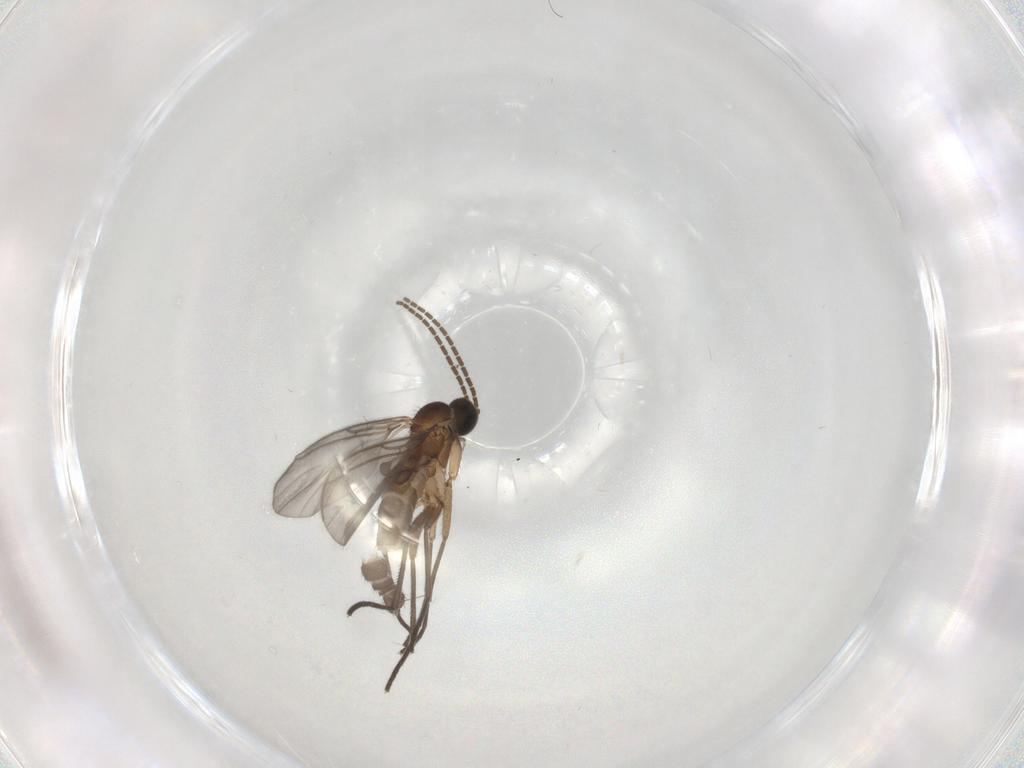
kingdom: Animalia
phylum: Arthropoda
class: Insecta
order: Diptera
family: Sciaridae
